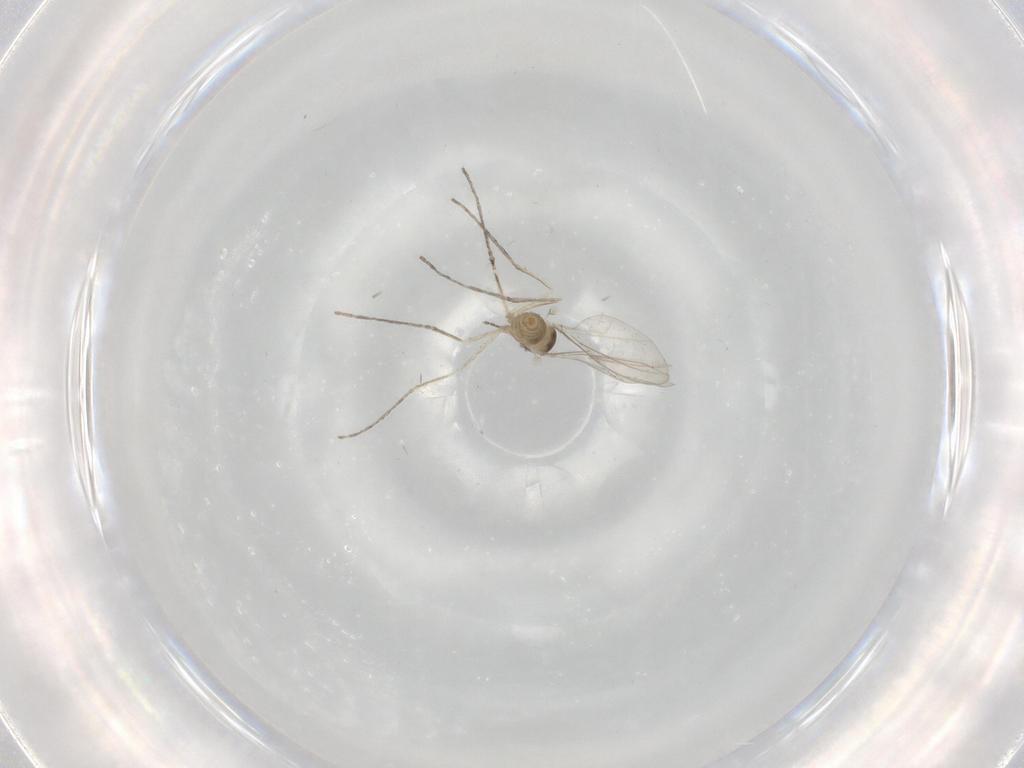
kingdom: Animalia
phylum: Arthropoda
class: Insecta
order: Diptera
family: Cecidomyiidae
